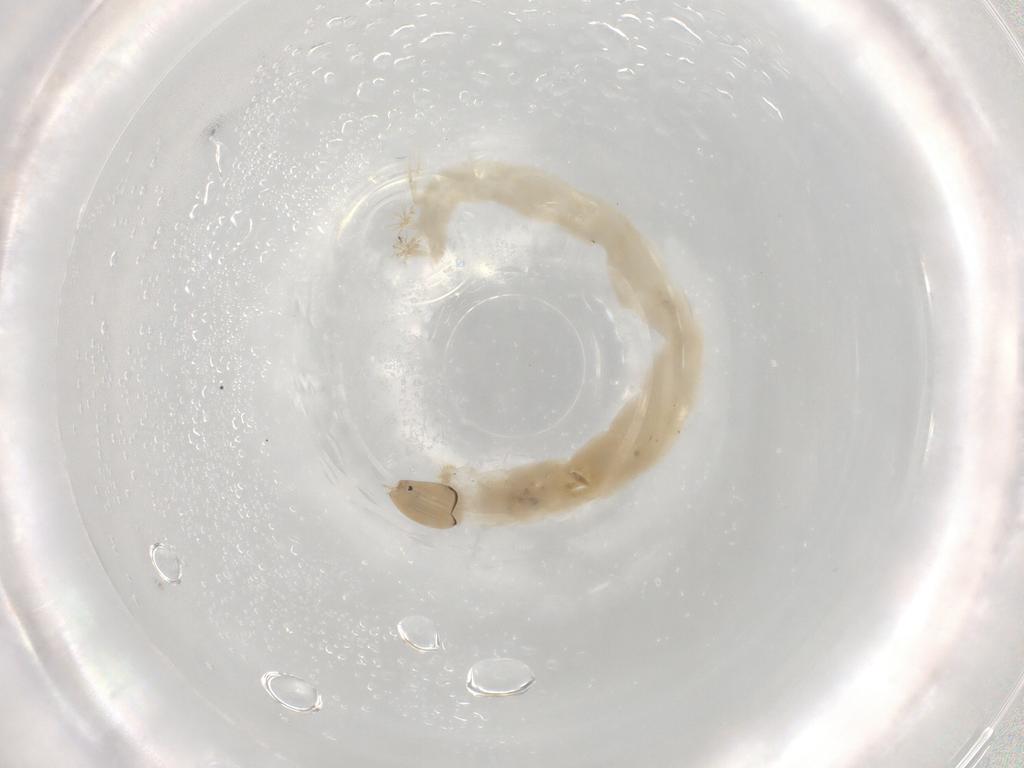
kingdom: Animalia
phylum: Arthropoda
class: Insecta
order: Diptera
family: Chironomidae
